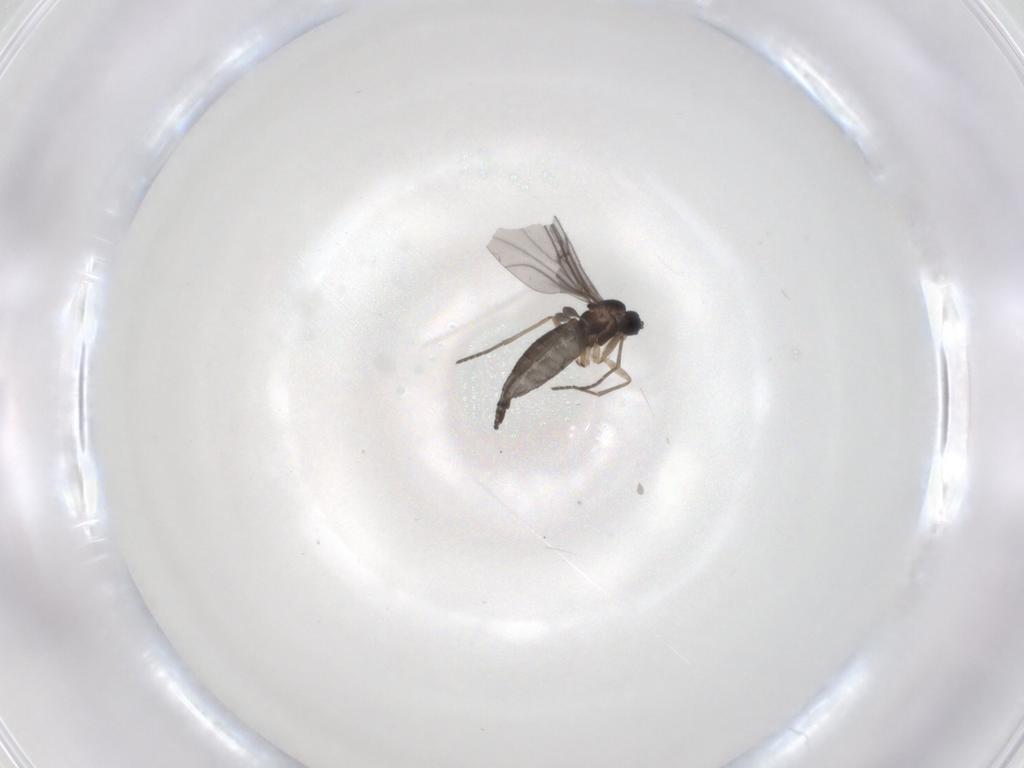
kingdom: Animalia
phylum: Arthropoda
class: Insecta
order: Diptera
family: Sciaridae
